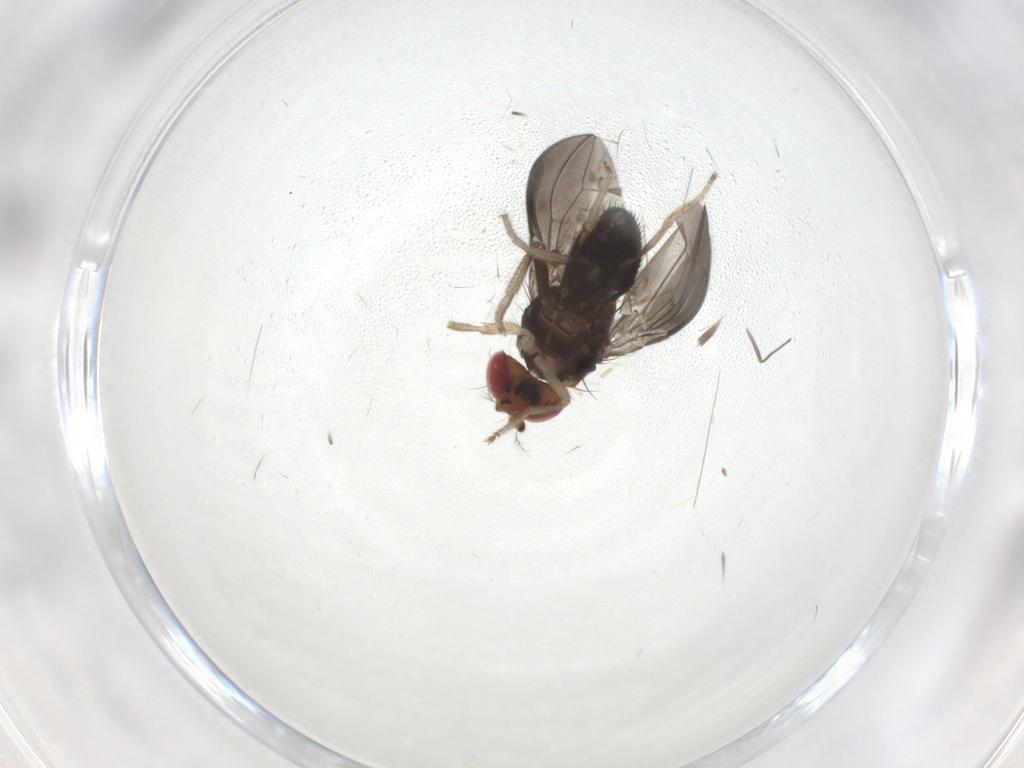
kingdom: Animalia
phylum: Arthropoda
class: Insecta
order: Diptera
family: Chironomidae
